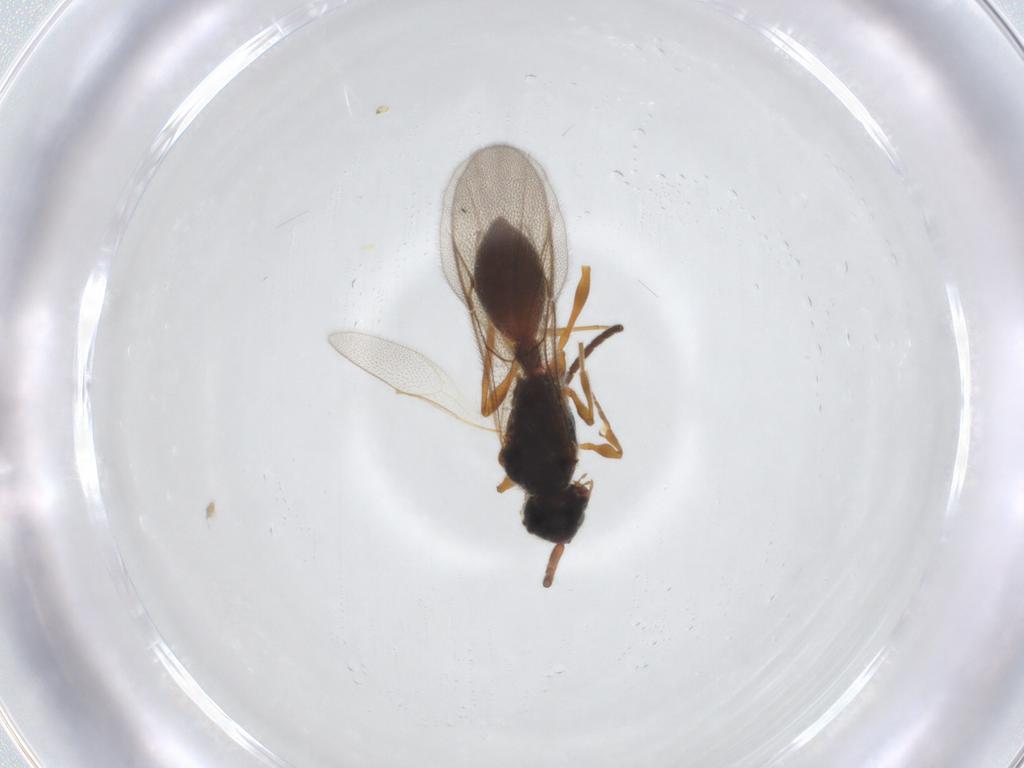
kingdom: Animalia
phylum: Arthropoda
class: Insecta
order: Hymenoptera
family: Diapriidae
